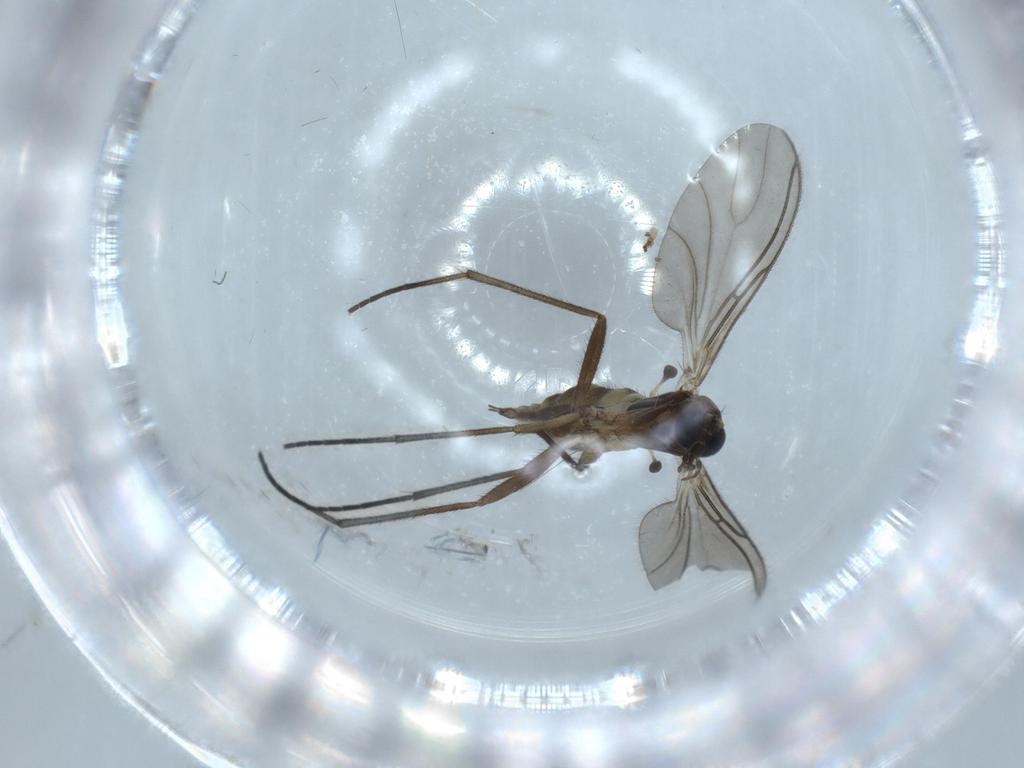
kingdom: Animalia
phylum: Arthropoda
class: Insecta
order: Diptera
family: Sciaridae
